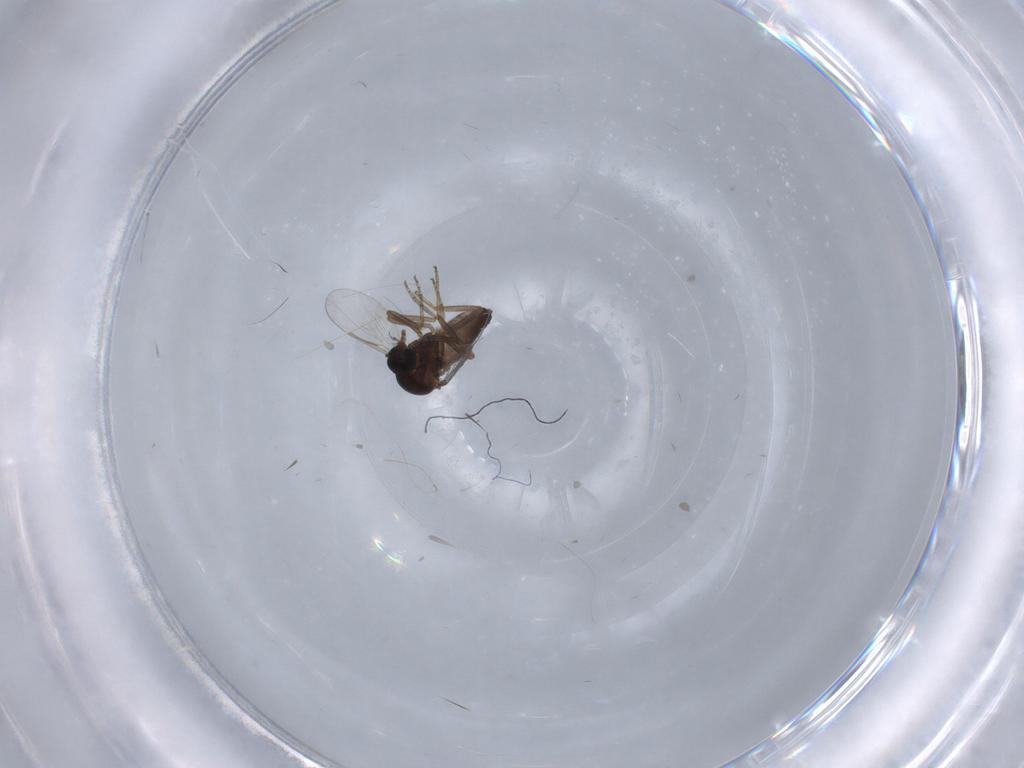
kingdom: Animalia
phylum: Arthropoda
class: Insecta
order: Diptera
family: Ceratopogonidae
